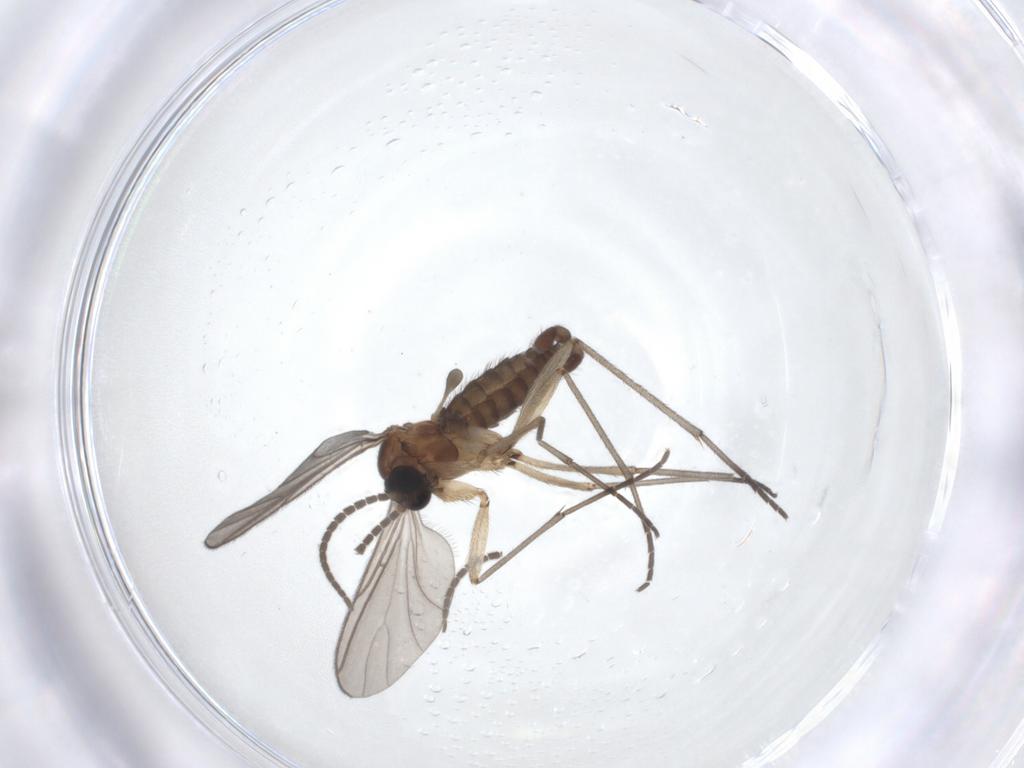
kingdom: Animalia
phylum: Arthropoda
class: Insecta
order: Diptera
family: Sciaridae
